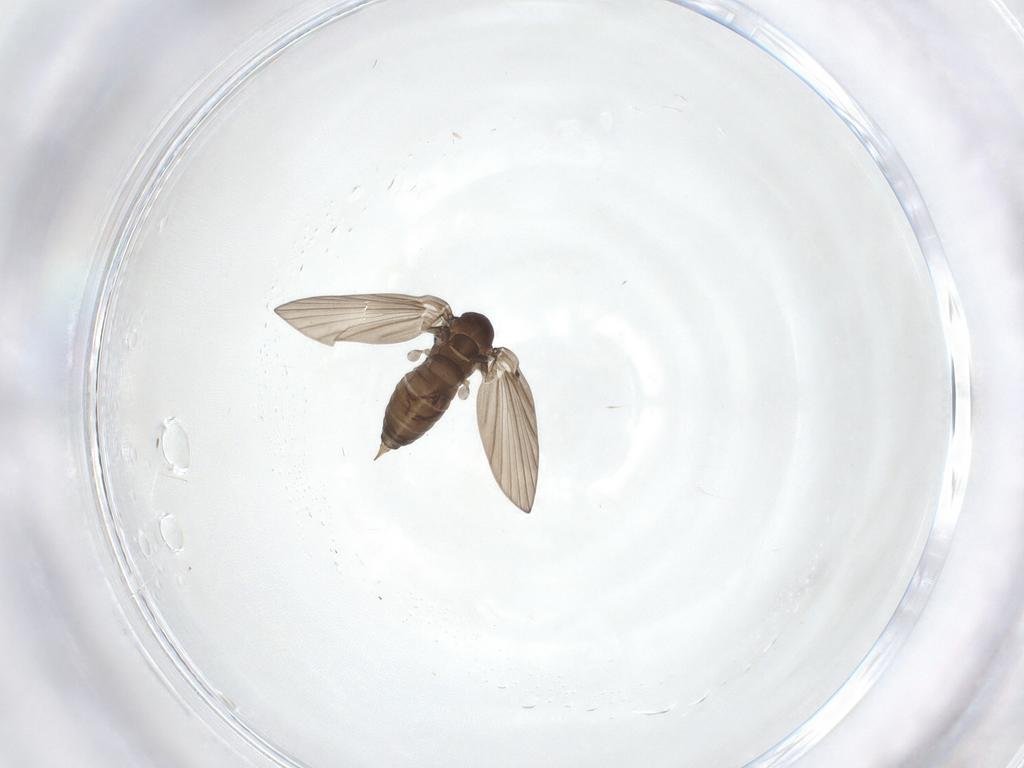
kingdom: Animalia
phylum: Arthropoda
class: Insecta
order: Diptera
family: Psychodidae
